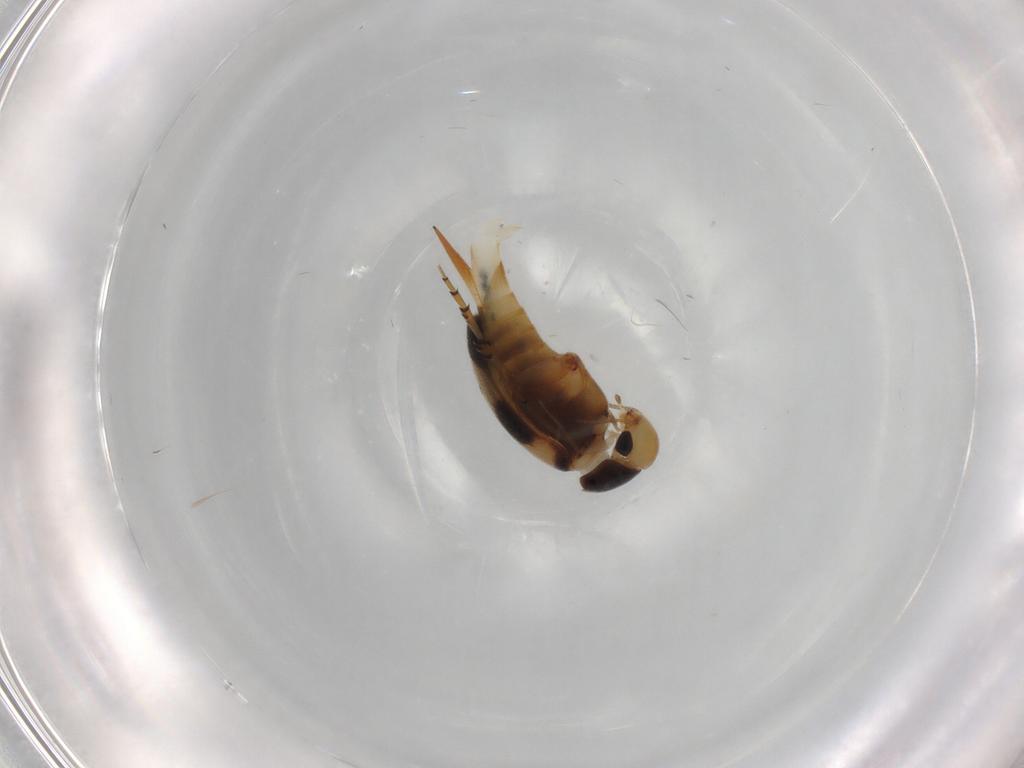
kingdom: Animalia
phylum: Arthropoda
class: Insecta
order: Coleoptera
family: Mordellidae
